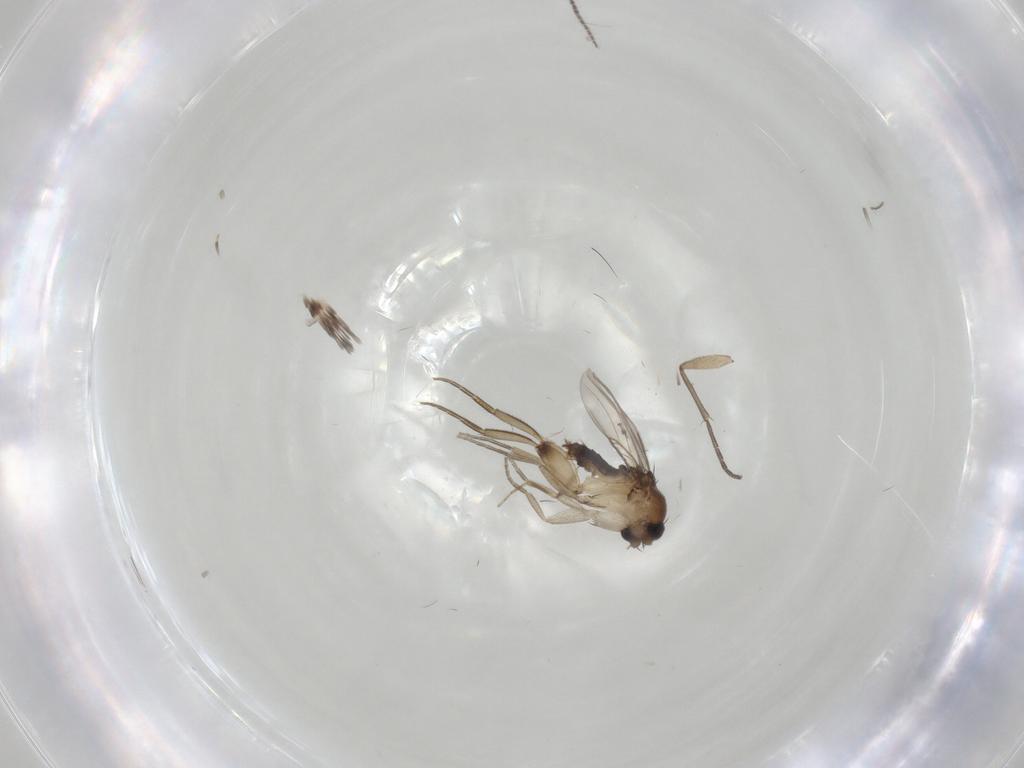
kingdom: Animalia
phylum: Arthropoda
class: Insecta
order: Diptera
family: Phoridae
